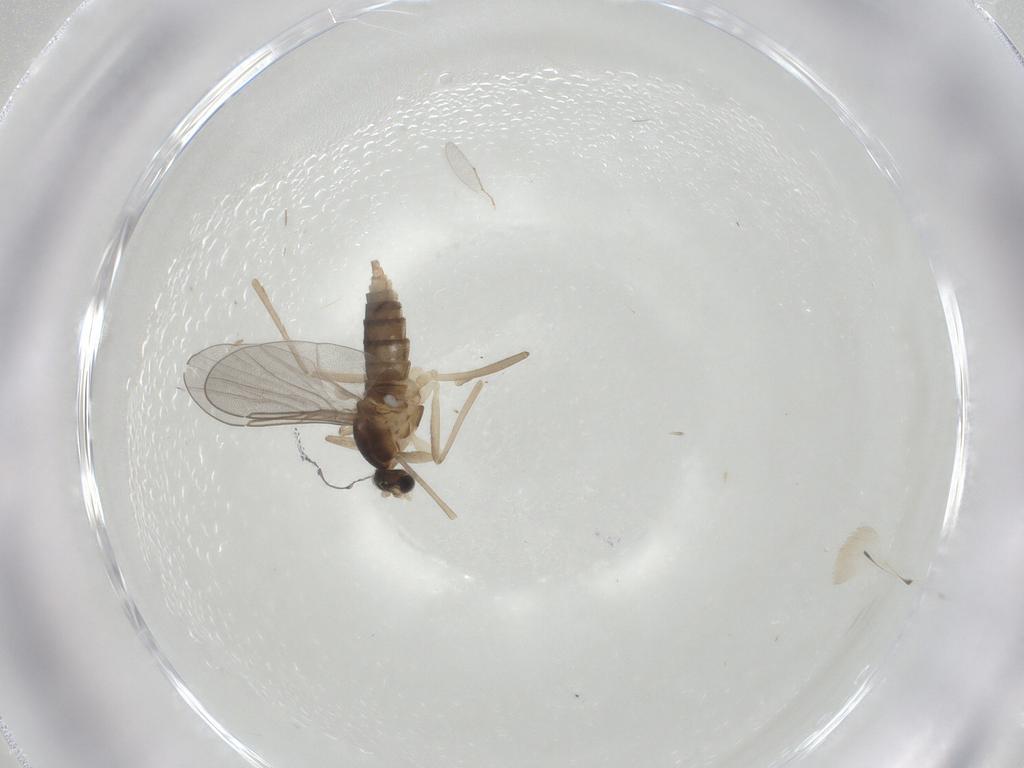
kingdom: Animalia
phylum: Arthropoda
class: Insecta
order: Diptera
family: Cecidomyiidae
